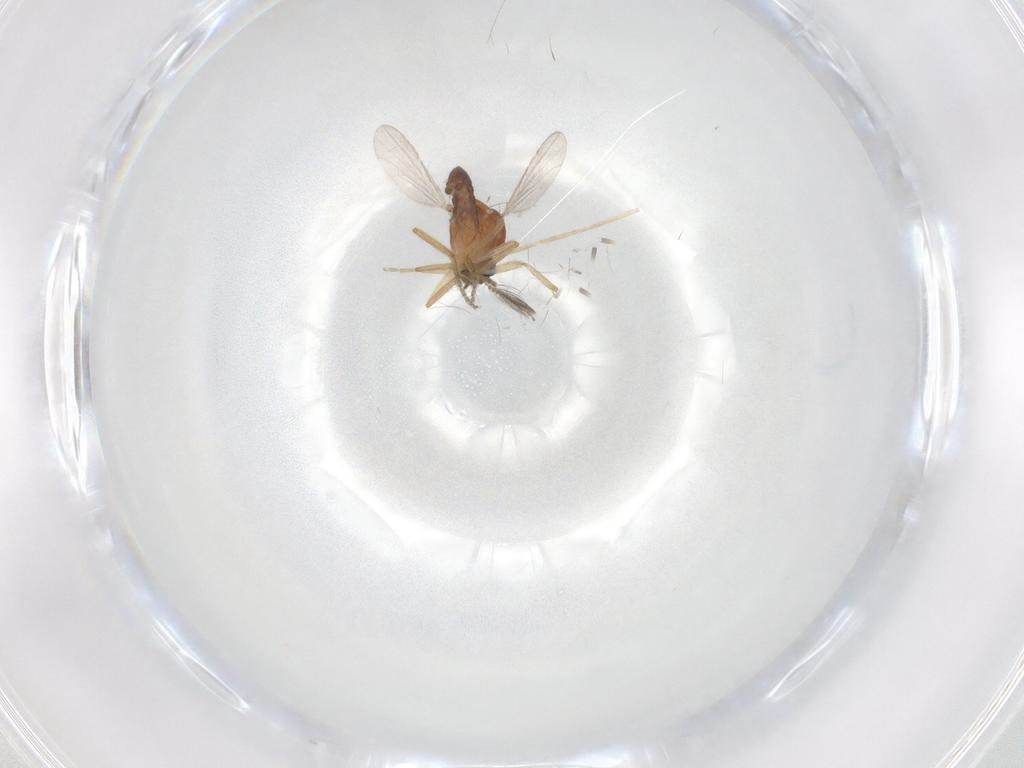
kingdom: Animalia
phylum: Arthropoda
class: Insecta
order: Diptera
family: Ceratopogonidae
